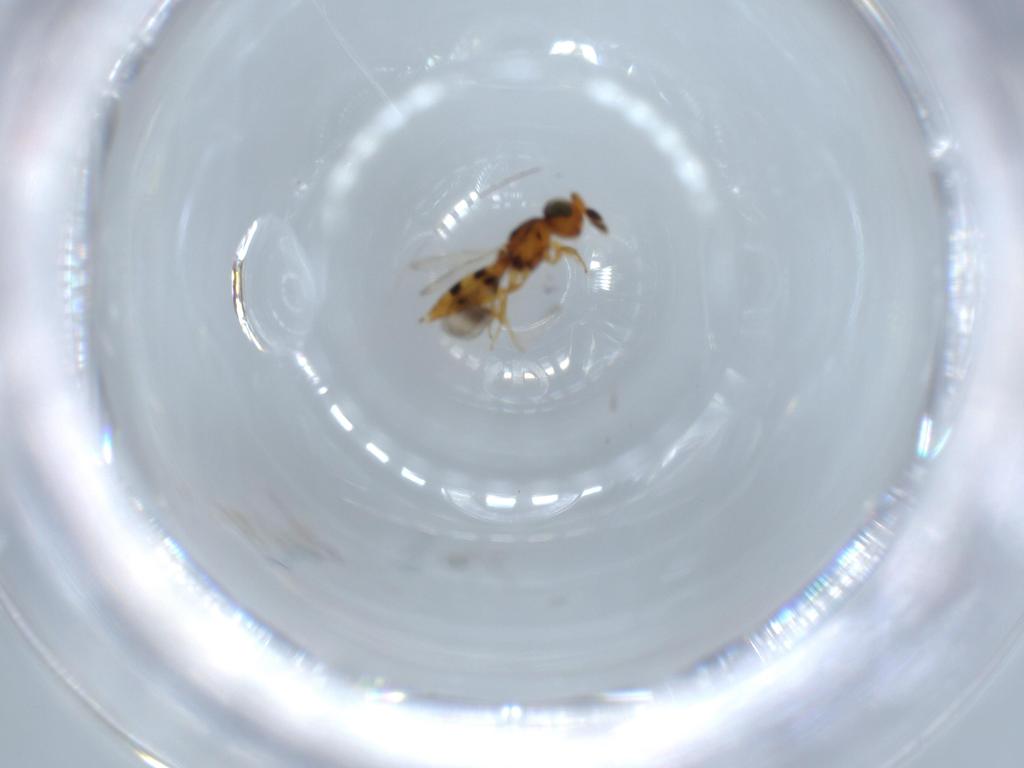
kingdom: Animalia
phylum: Arthropoda
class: Insecta
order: Hymenoptera
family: Scelionidae
